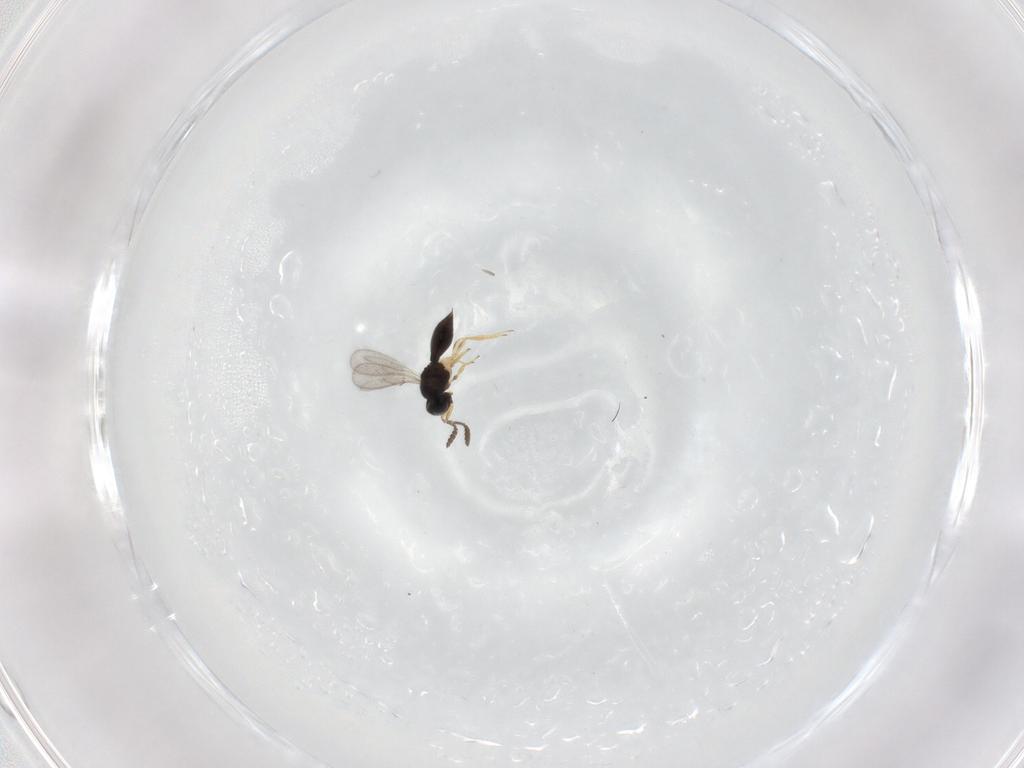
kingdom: Animalia
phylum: Arthropoda
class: Insecta
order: Hymenoptera
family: Scelionidae
